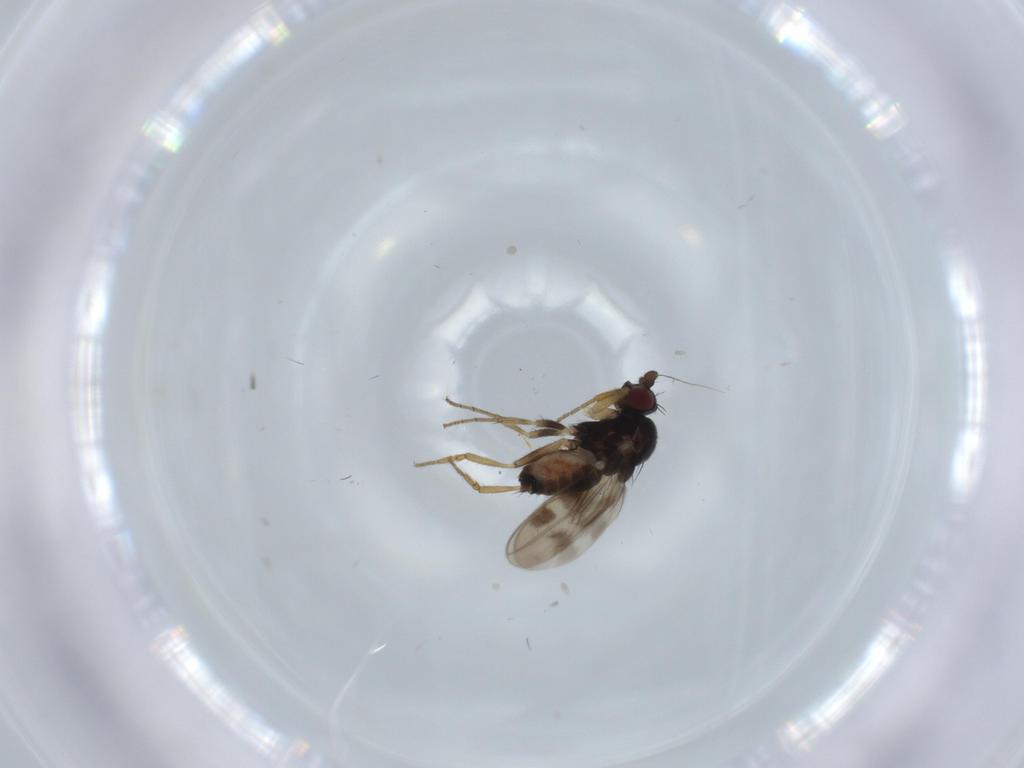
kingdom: Animalia
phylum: Arthropoda
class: Insecta
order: Diptera
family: Sphaeroceridae
